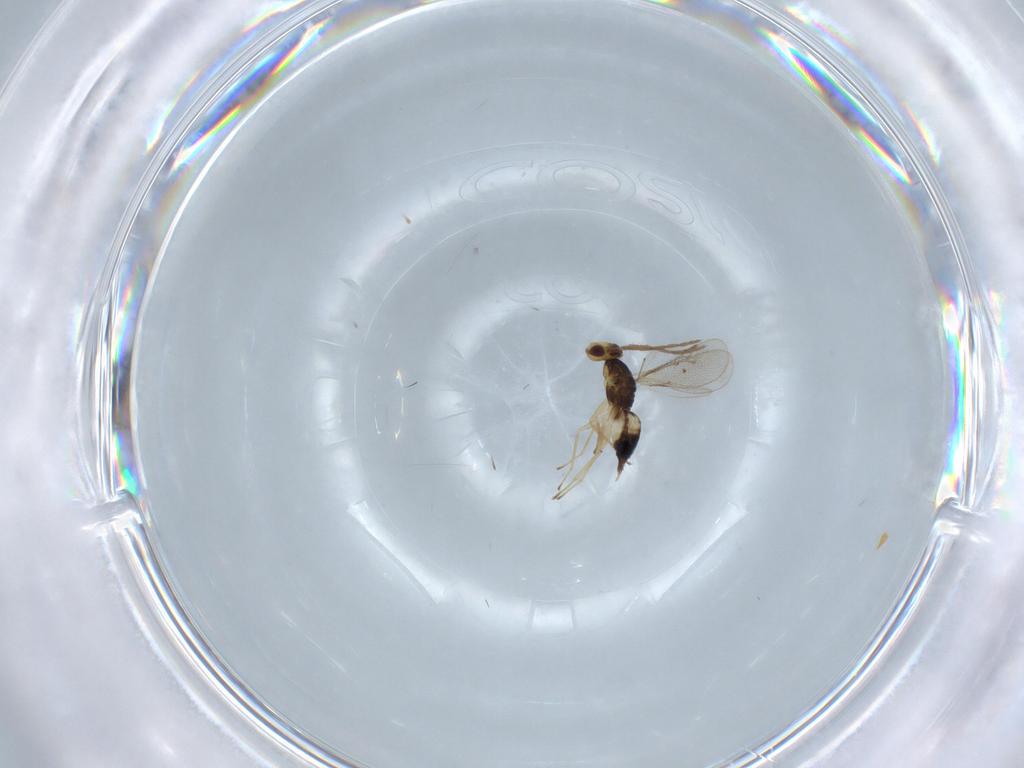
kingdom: Animalia
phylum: Arthropoda
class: Insecta
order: Hymenoptera
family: Eulophidae
